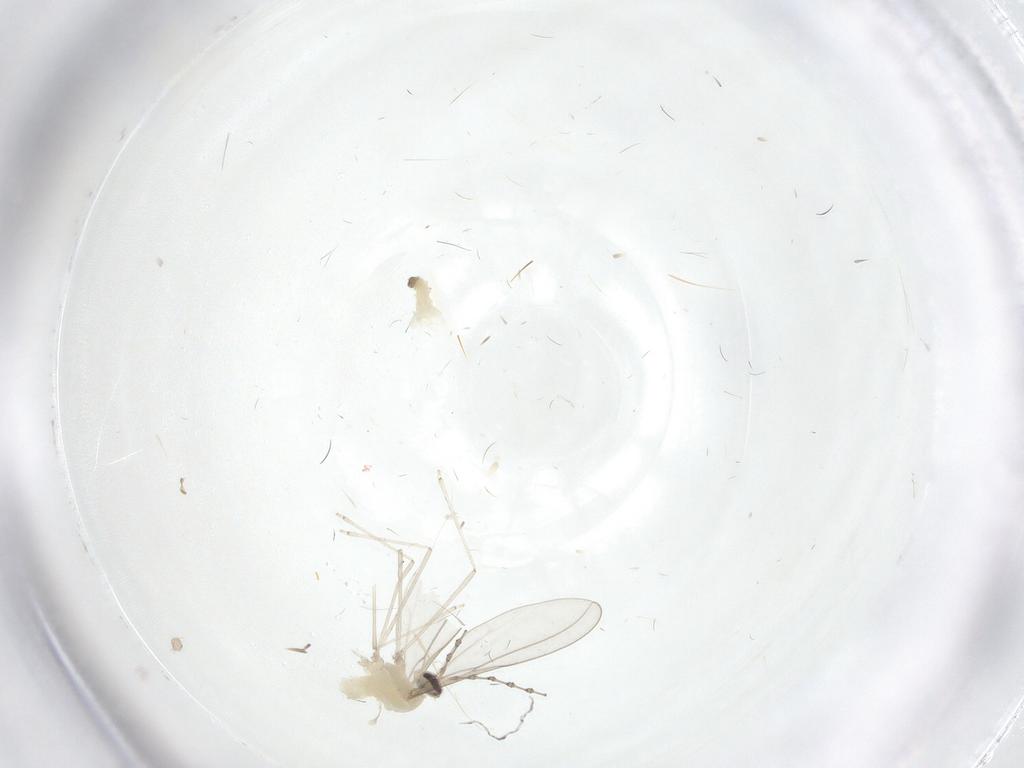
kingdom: Animalia
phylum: Arthropoda
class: Insecta
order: Diptera
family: Cecidomyiidae
